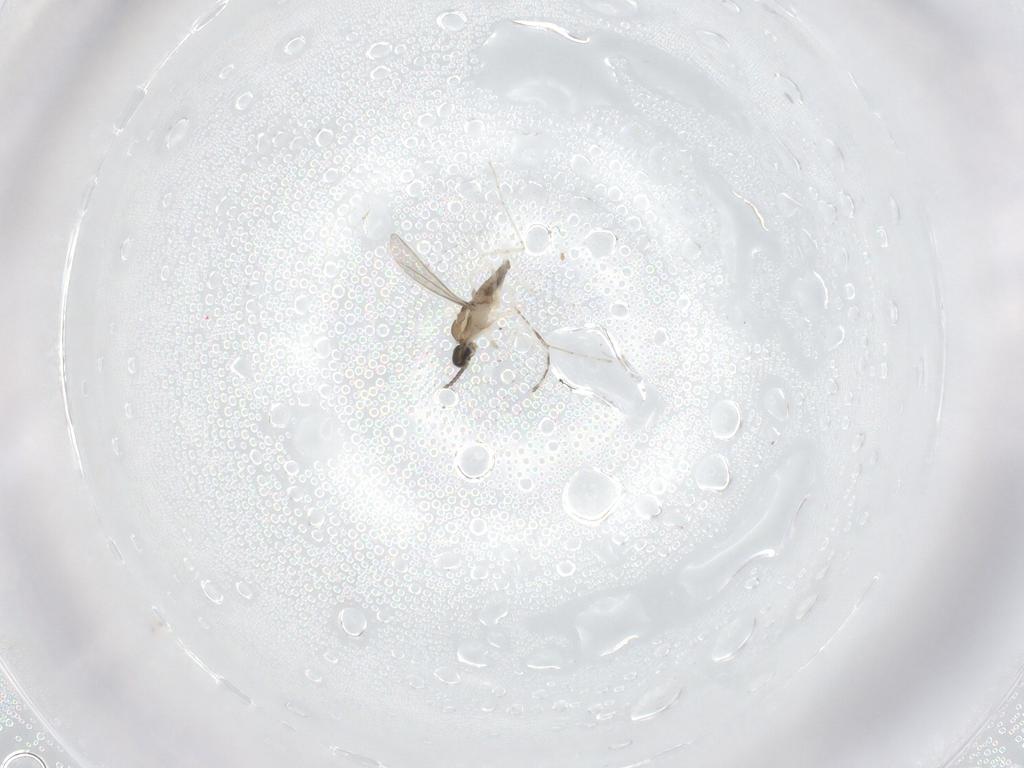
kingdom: Animalia
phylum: Arthropoda
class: Insecta
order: Diptera
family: Cecidomyiidae
